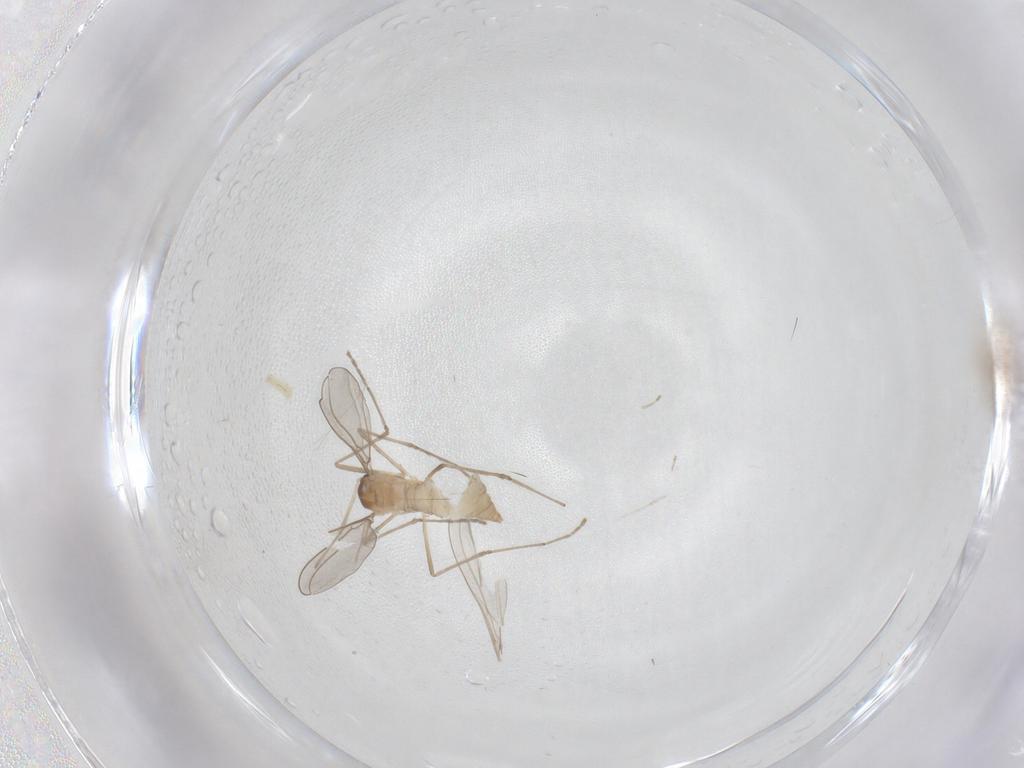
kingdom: Animalia
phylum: Arthropoda
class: Insecta
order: Diptera
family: Cecidomyiidae
